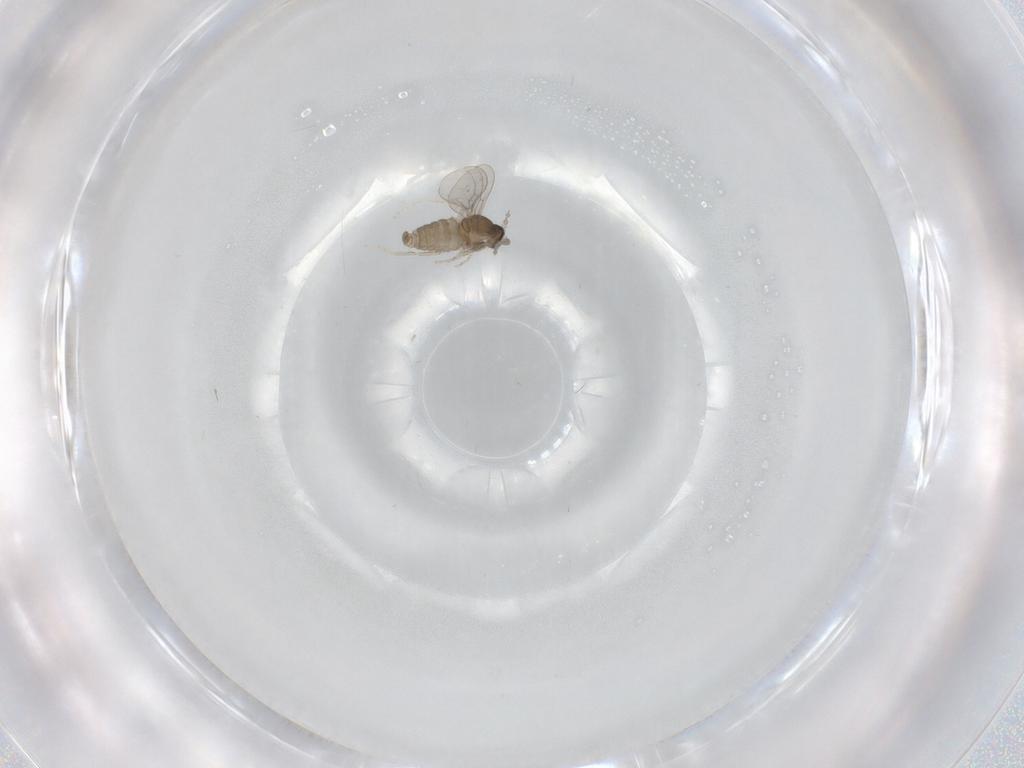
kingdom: Animalia
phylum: Arthropoda
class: Insecta
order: Diptera
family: Cecidomyiidae
